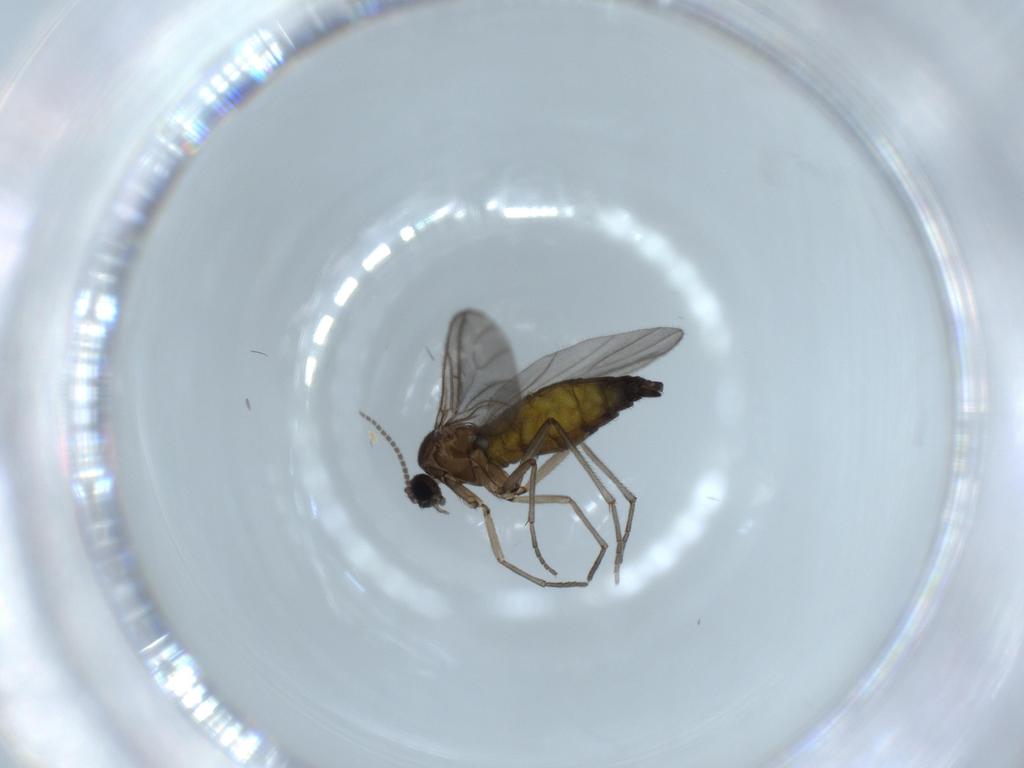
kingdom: Animalia
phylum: Arthropoda
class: Insecta
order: Diptera
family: Sciaridae
